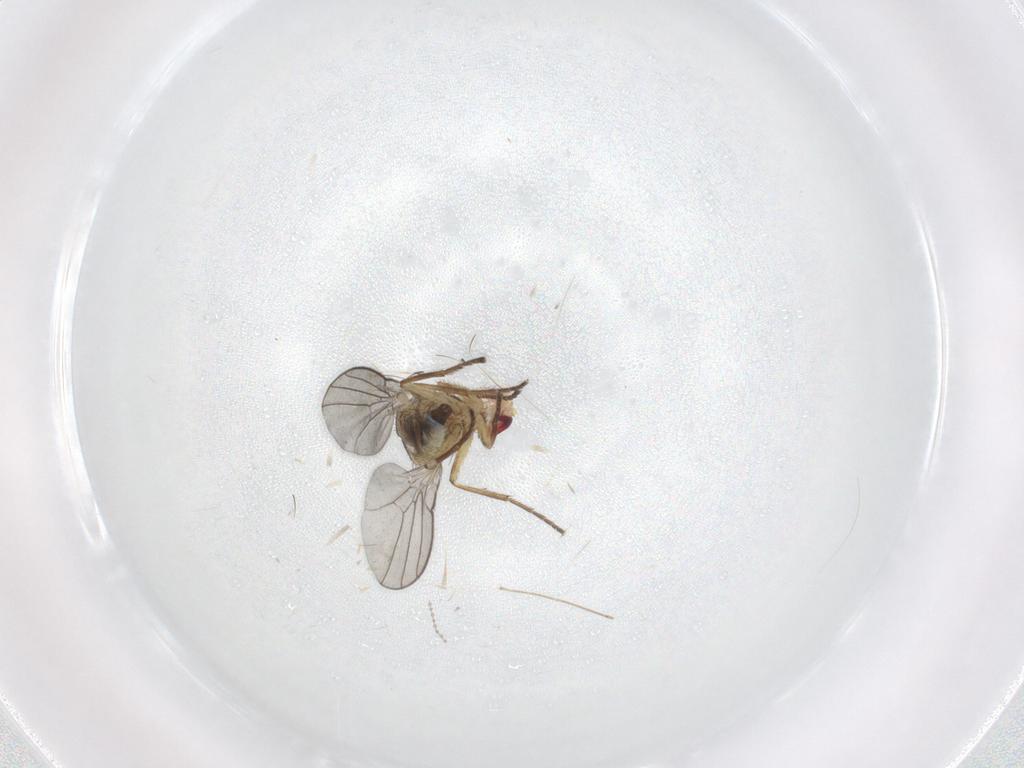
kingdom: Animalia
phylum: Arthropoda
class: Insecta
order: Diptera
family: Agromyzidae
